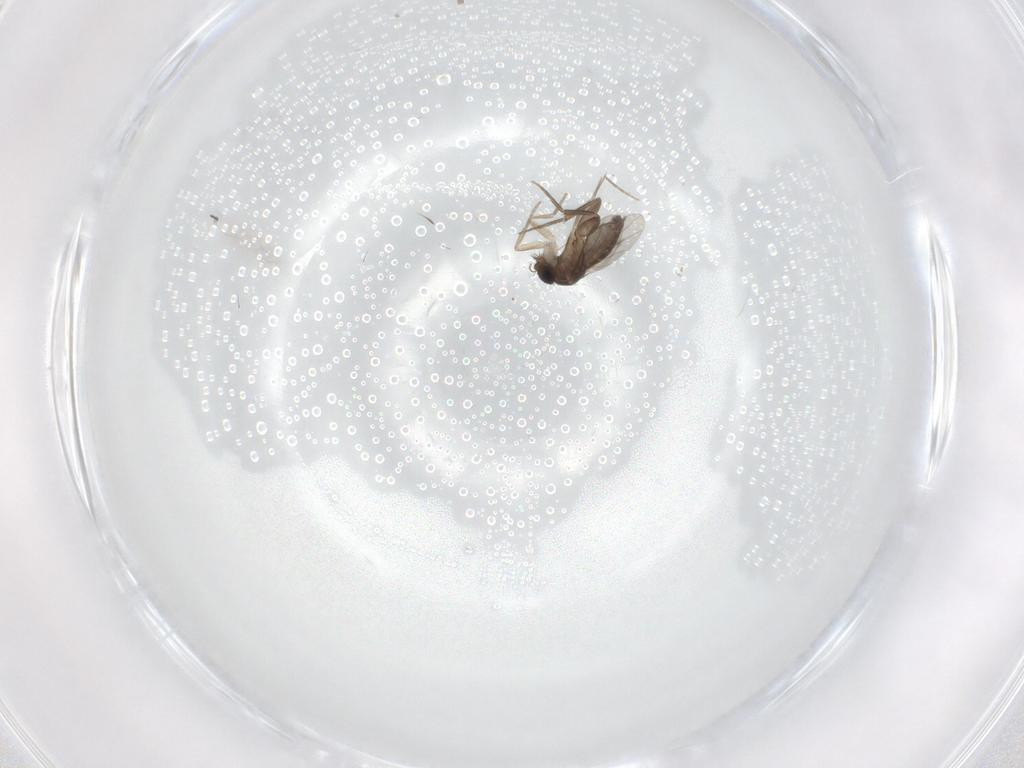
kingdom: Animalia
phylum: Arthropoda
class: Insecta
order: Diptera
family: Phoridae
